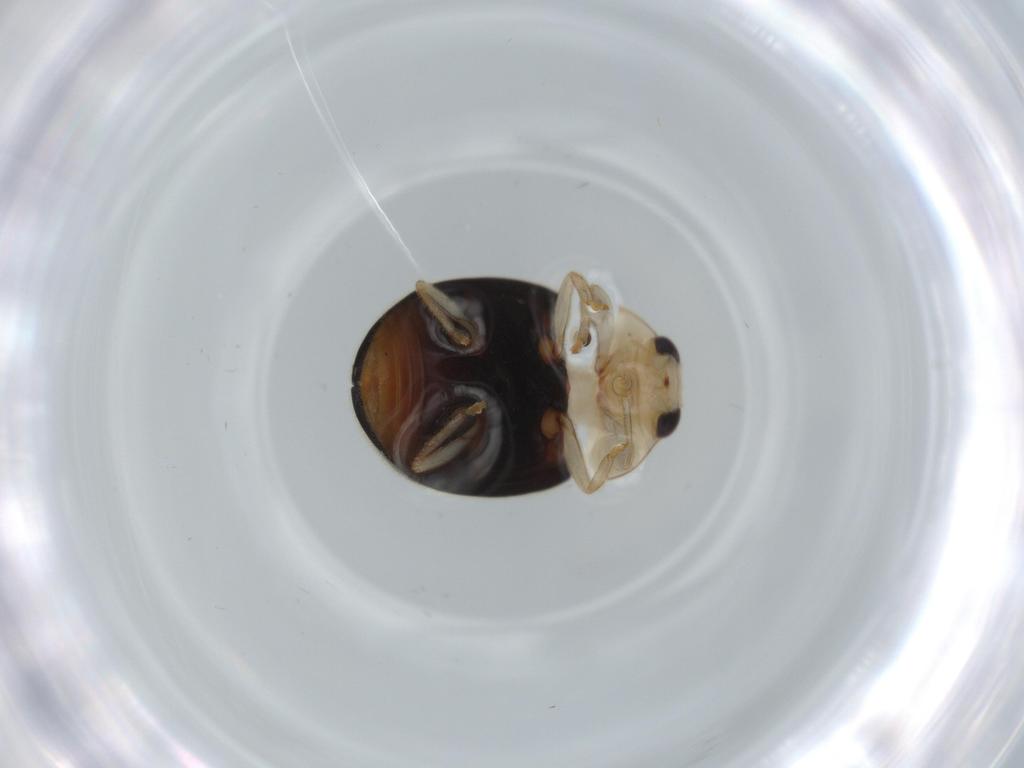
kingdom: Animalia
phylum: Arthropoda
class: Insecta
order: Coleoptera
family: Coccinellidae
